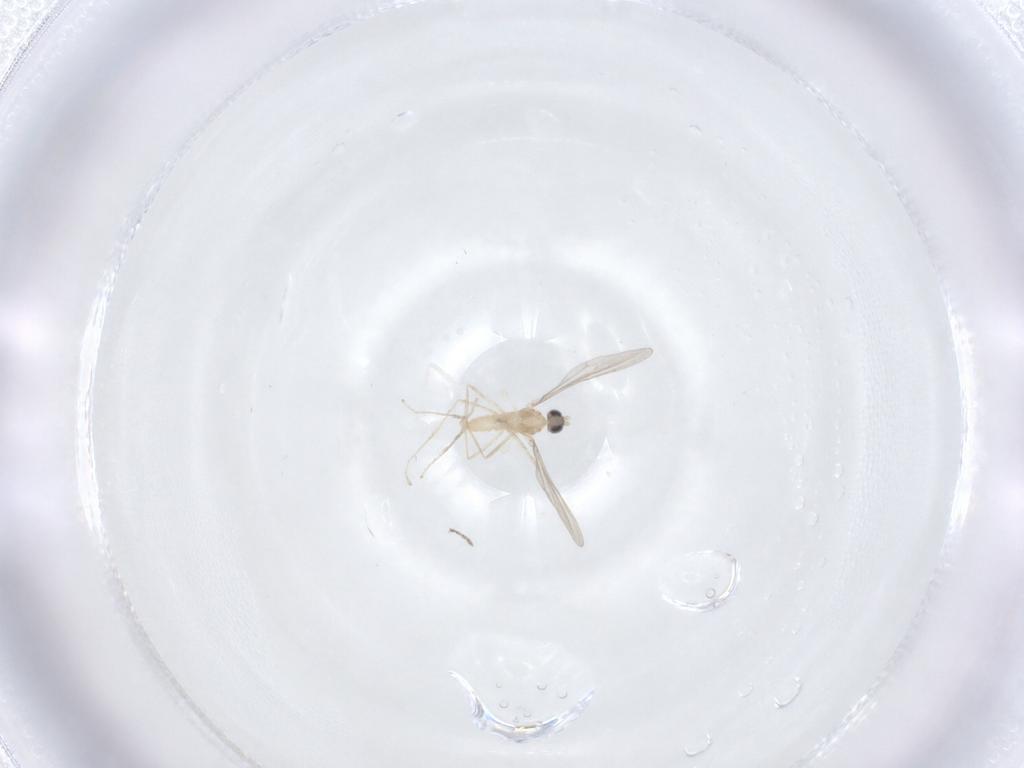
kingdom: Animalia
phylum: Arthropoda
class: Insecta
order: Diptera
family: Ceratopogonidae
